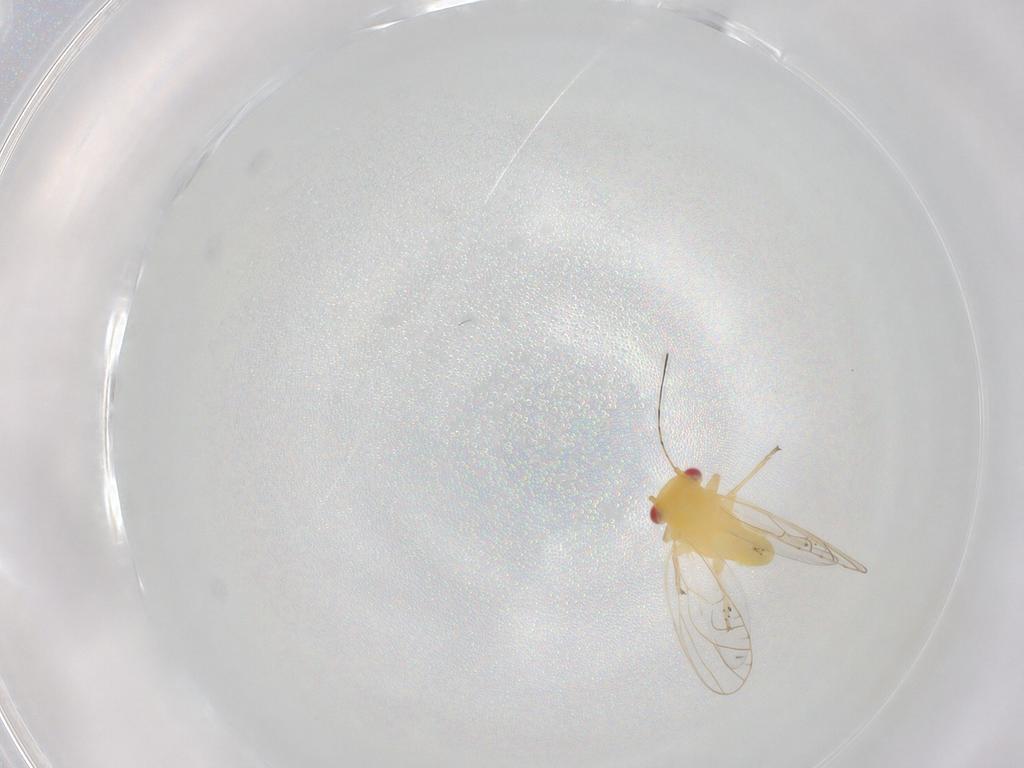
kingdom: Animalia
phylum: Arthropoda
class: Insecta
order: Hemiptera
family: Psyllidae
